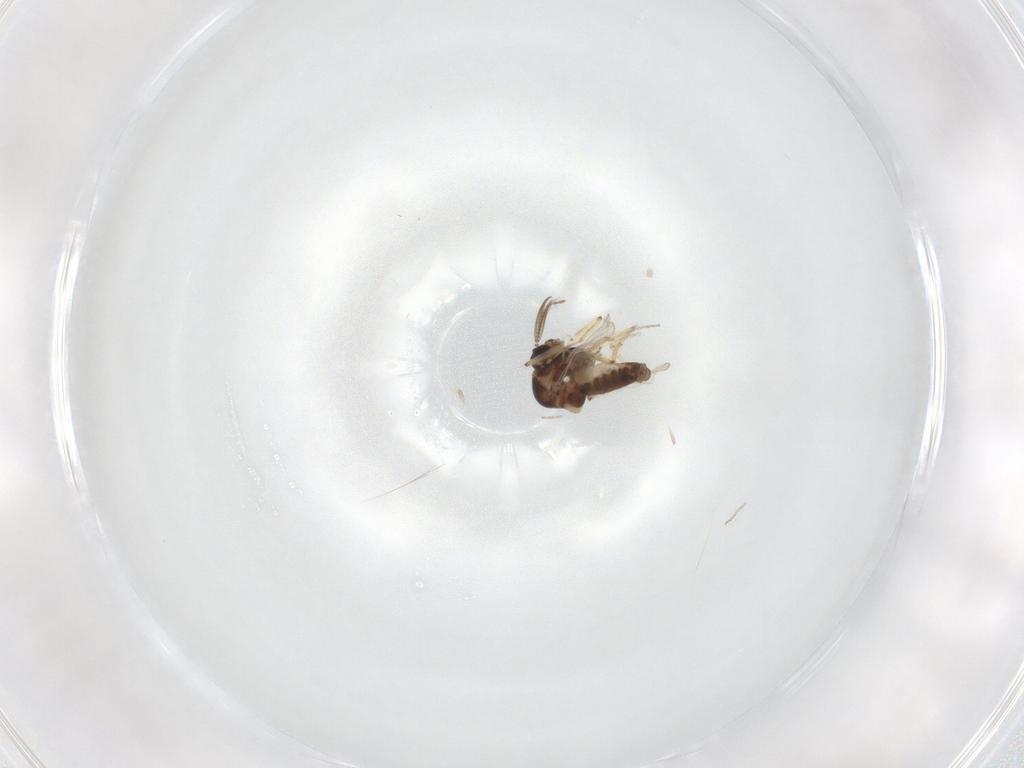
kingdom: Animalia
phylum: Arthropoda
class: Insecta
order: Diptera
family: Ceratopogonidae
